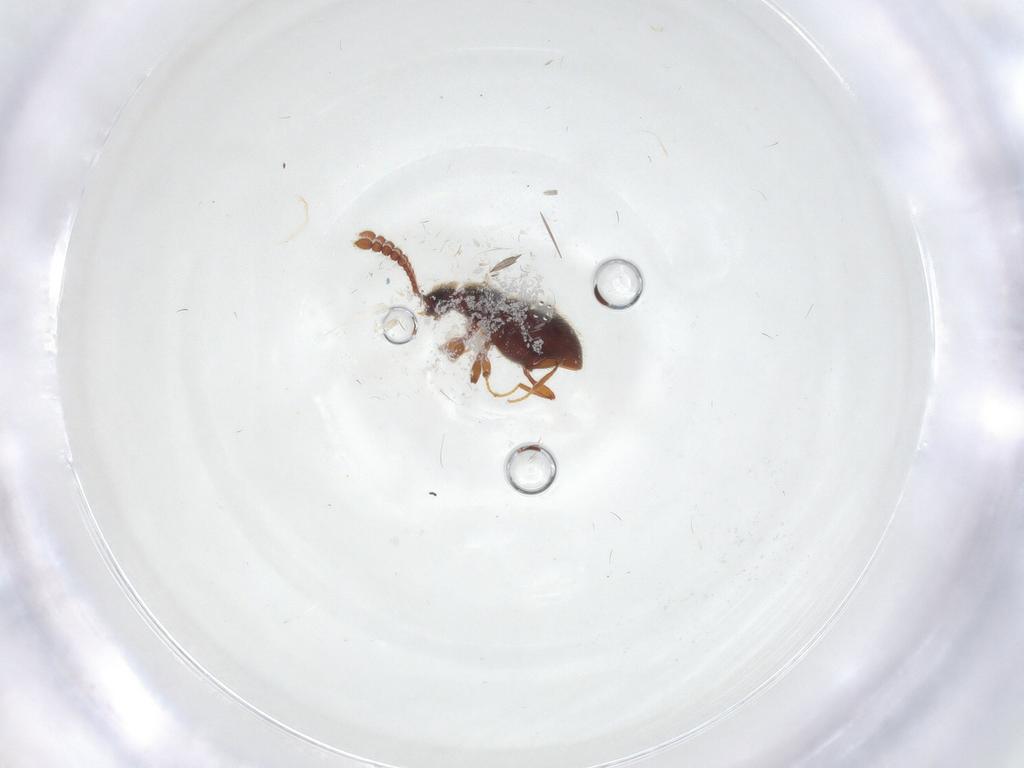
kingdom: Animalia
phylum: Arthropoda
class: Insecta
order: Coleoptera
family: Staphylinidae
